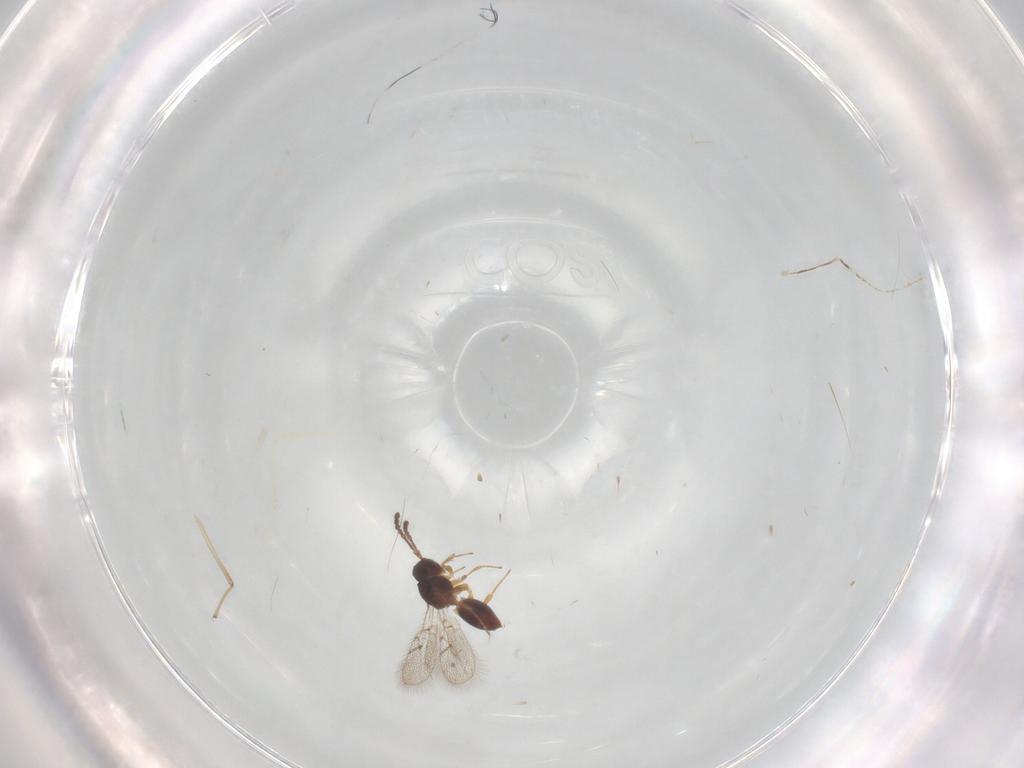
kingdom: Animalia
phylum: Arthropoda
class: Insecta
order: Hymenoptera
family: Figitidae
